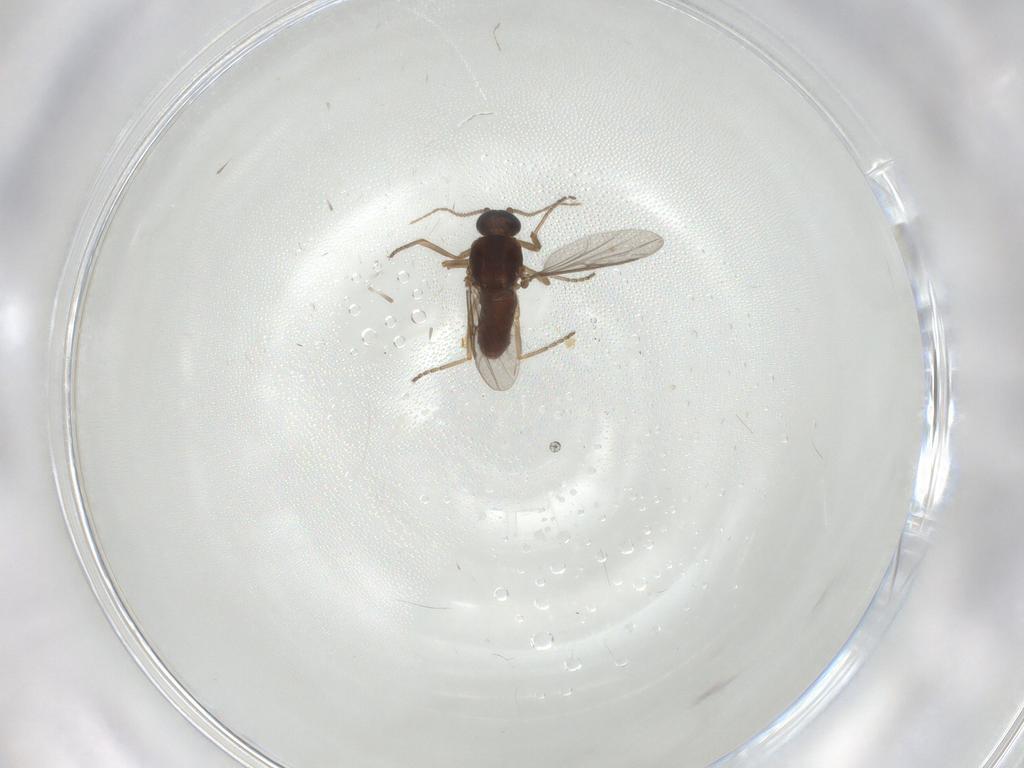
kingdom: Animalia
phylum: Arthropoda
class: Insecta
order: Diptera
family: Ceratopogonidae
